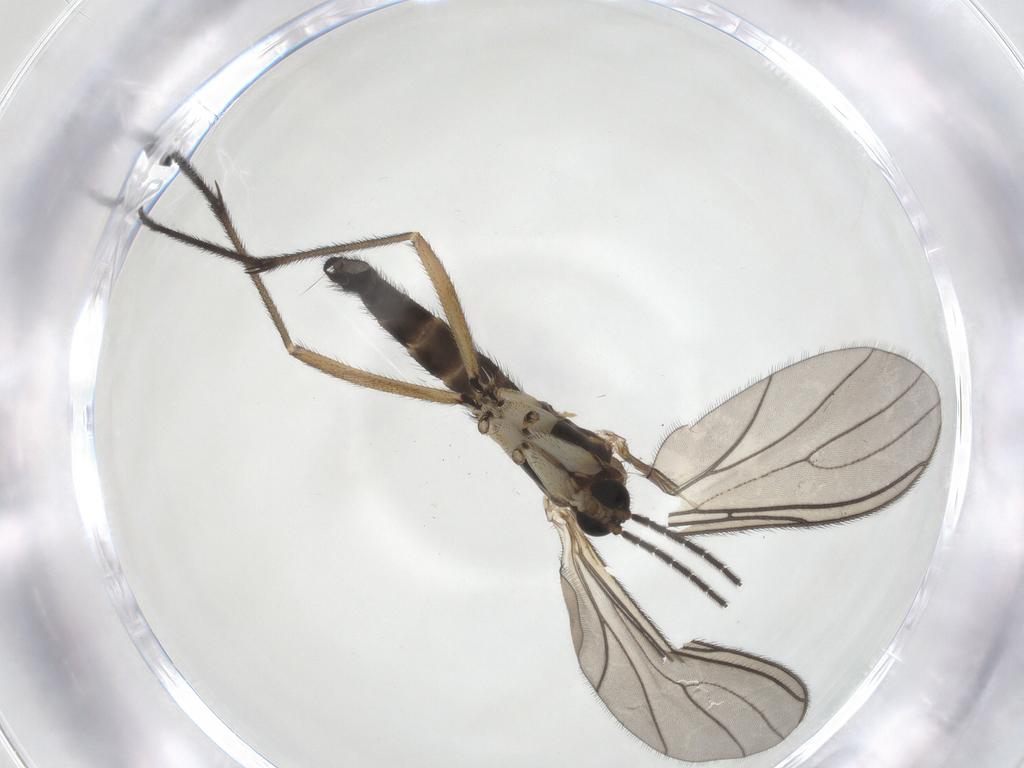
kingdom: Animalia
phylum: Arthropoda
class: Insecta
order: Diptera
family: Sciaridae
